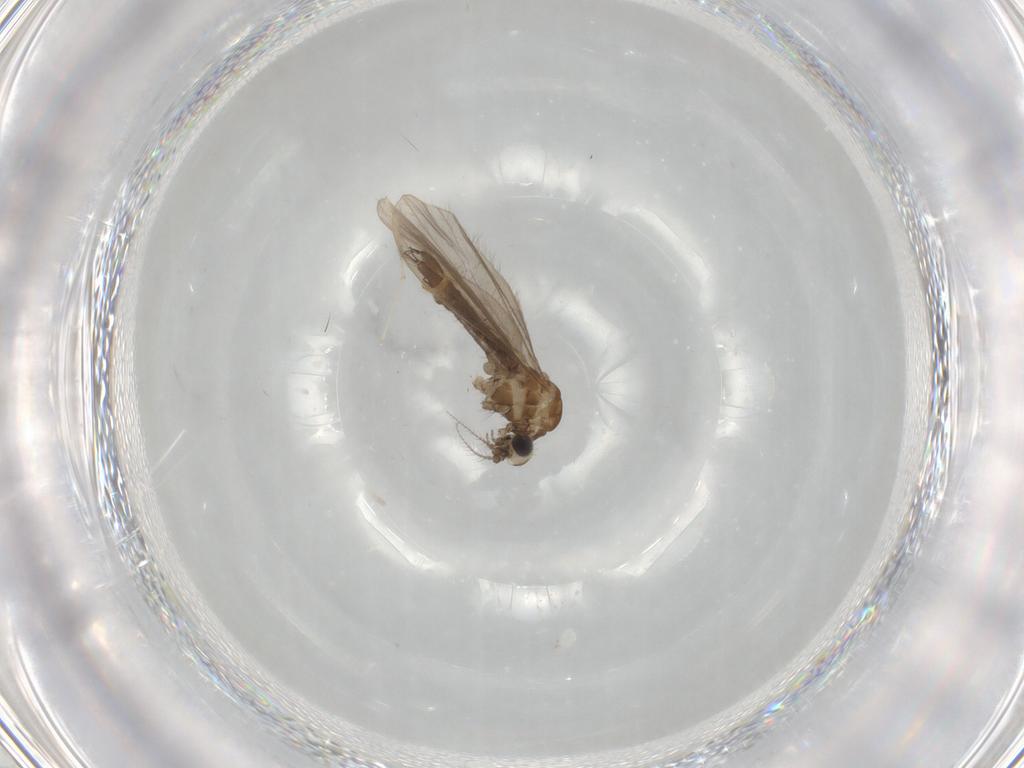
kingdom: Animalia
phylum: Arthropoda
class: Insecta
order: Diptera
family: Limoniidae
